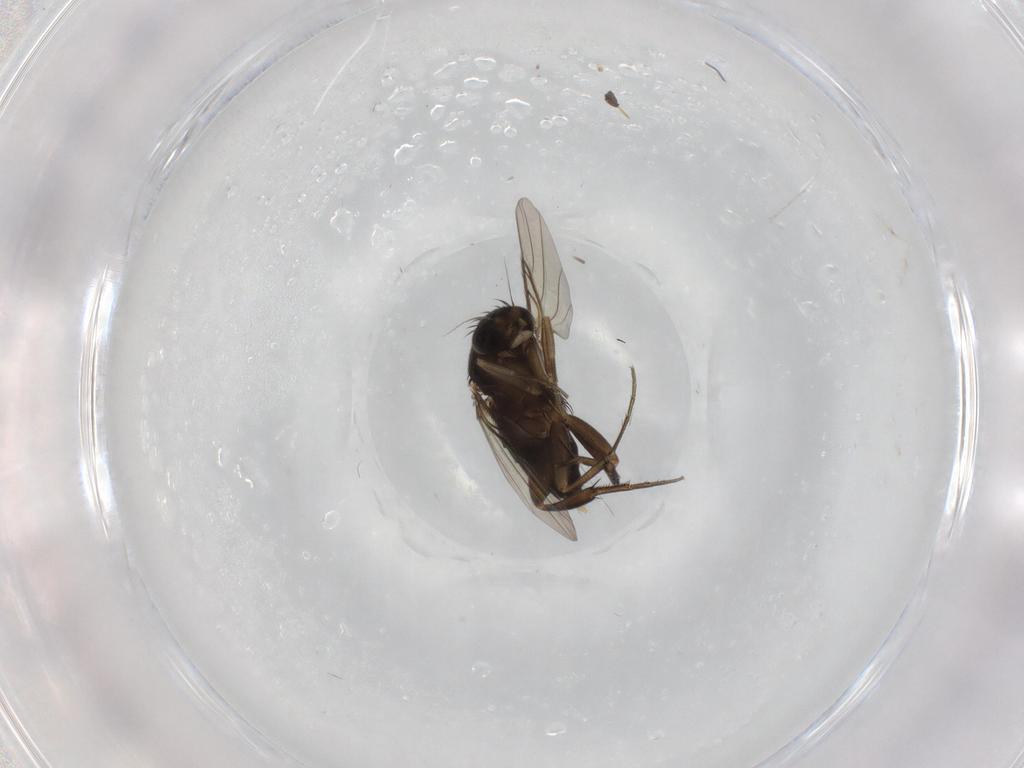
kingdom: Animalia
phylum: Arthropoda
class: Insecta
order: Diptera
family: Phoridae
